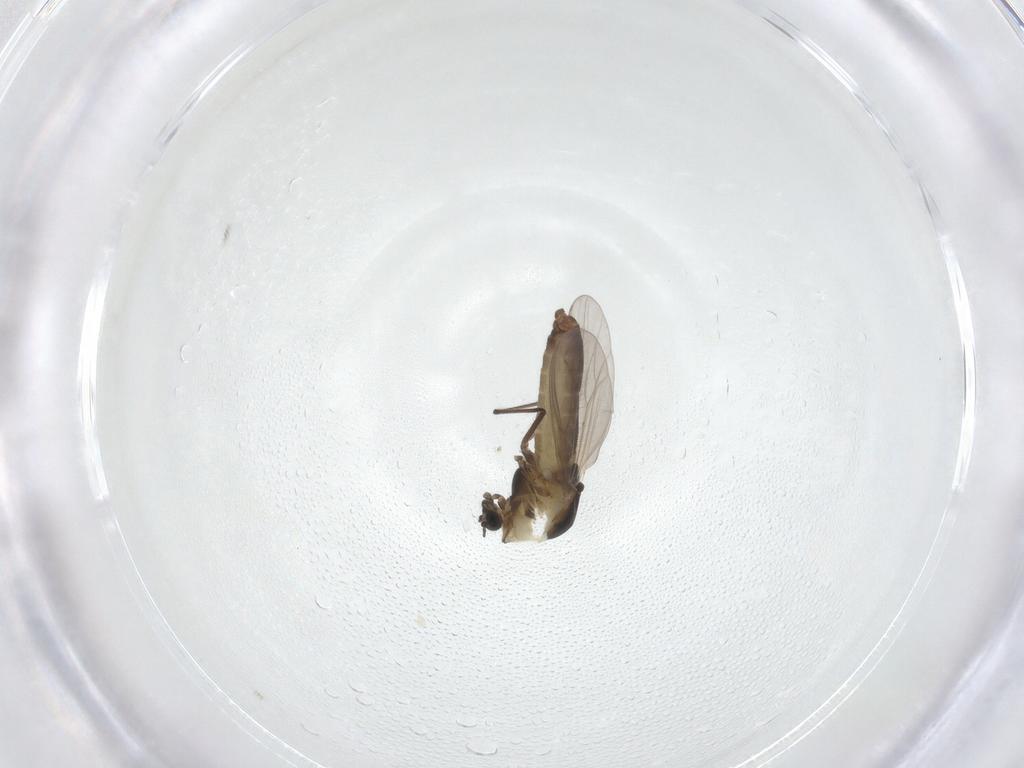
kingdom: Animalia
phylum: Arthropoda
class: Insecta
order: Diptera
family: Chironomidae
